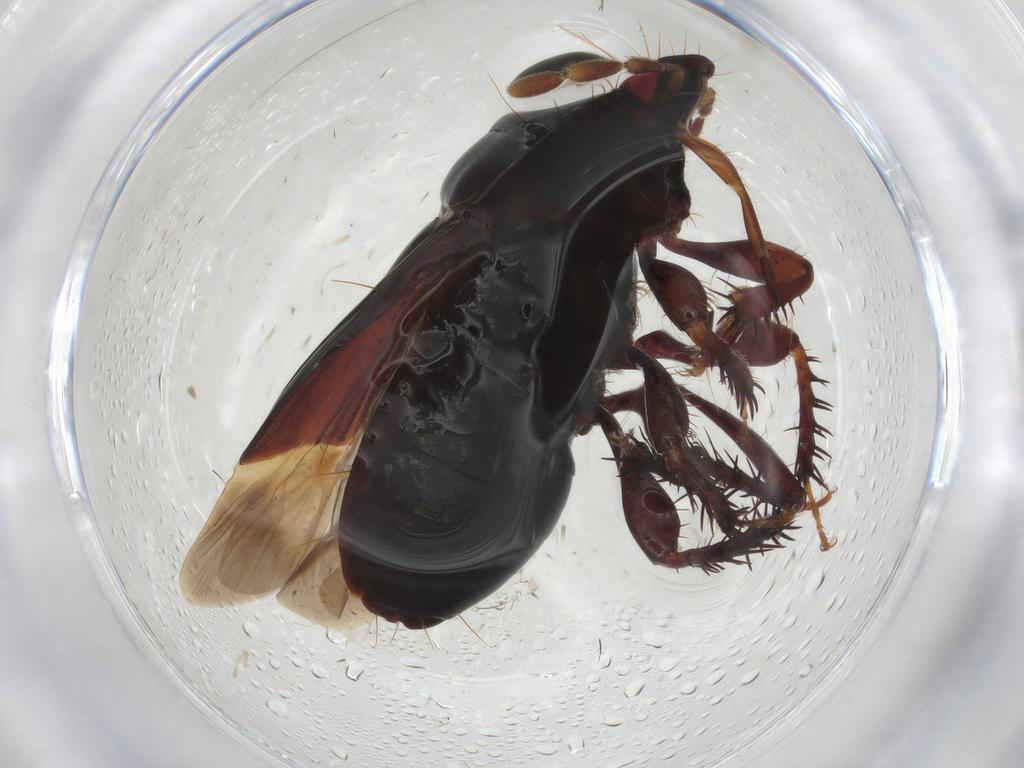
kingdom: Animalia
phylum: Arthropoda
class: Insecta
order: Hemiptera
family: Cydnidae
